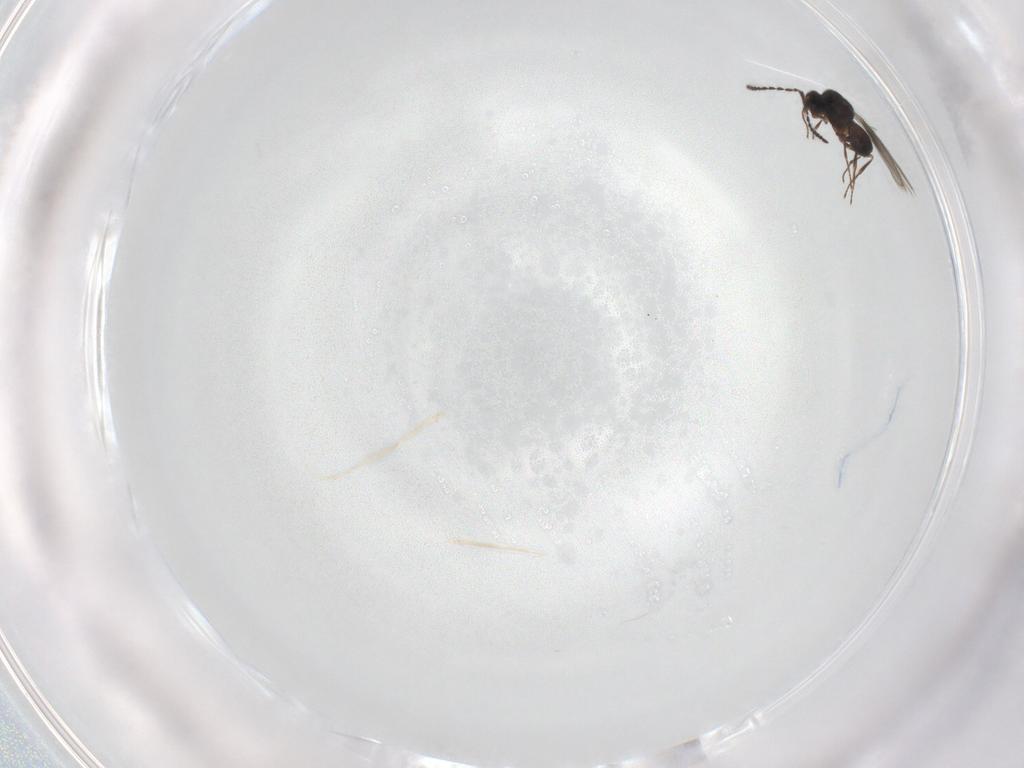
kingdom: Animalia
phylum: Arthropoda
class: Insecta
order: Hymenoptera
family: Ceraphronidae
